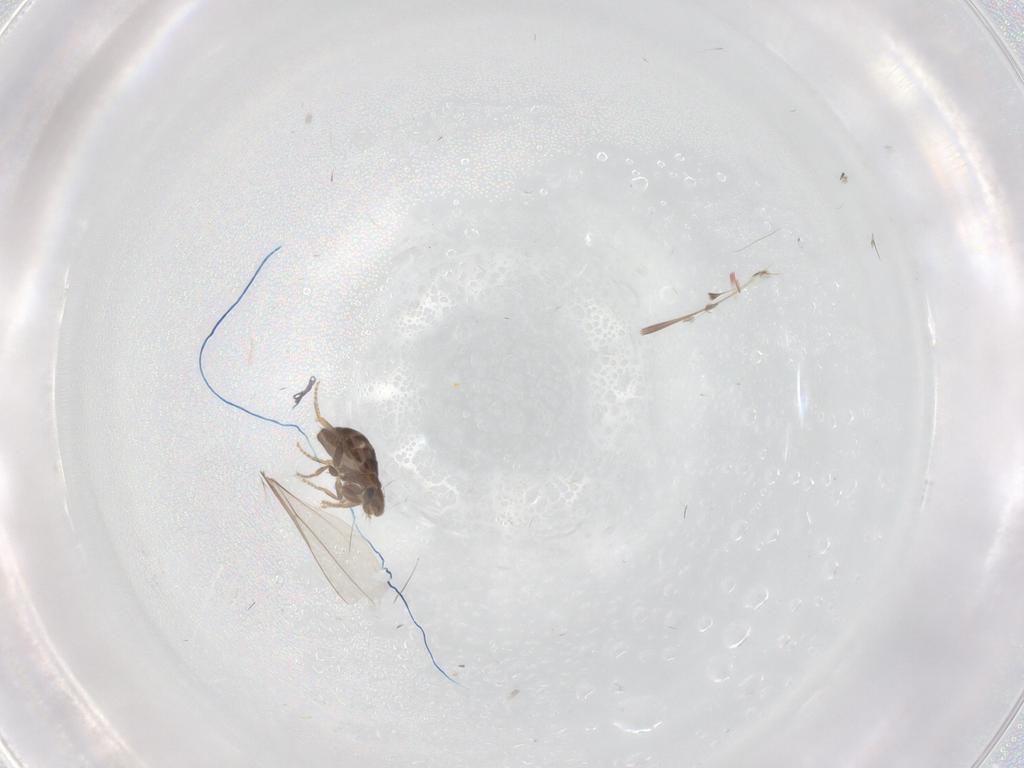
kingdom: Animalia
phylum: Arthropoda
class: Insecta
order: Diptera
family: Phoridae
